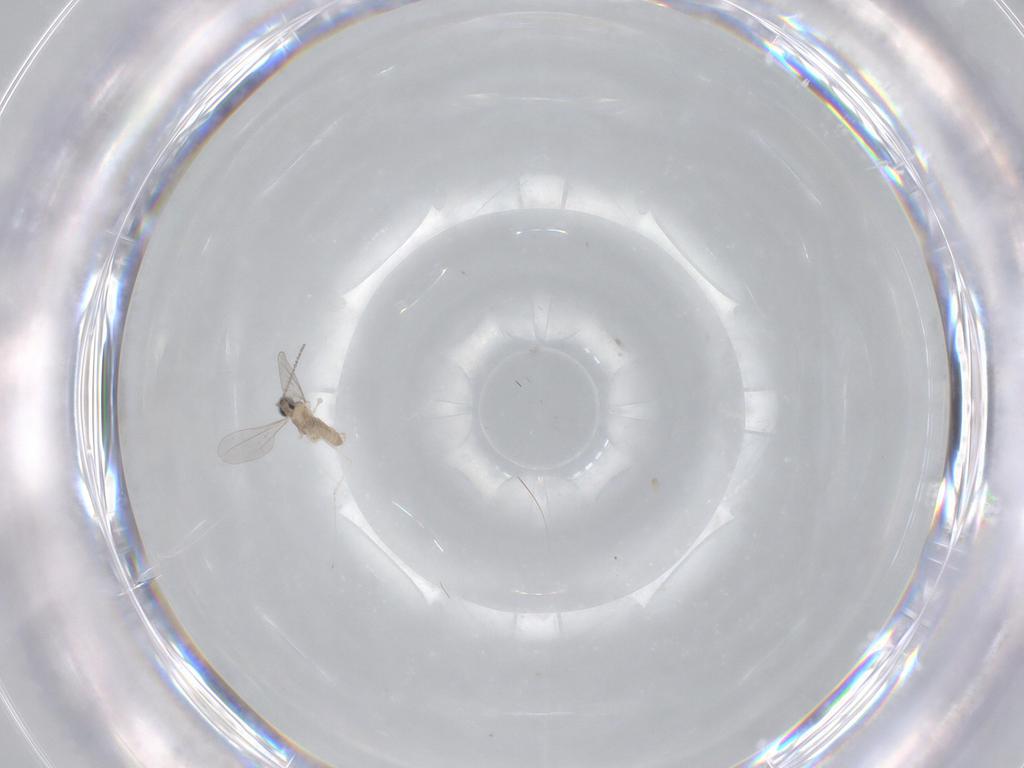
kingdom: Animalia
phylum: Arthropoda
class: Insecta
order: Diptera
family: Cecidomyiidae
